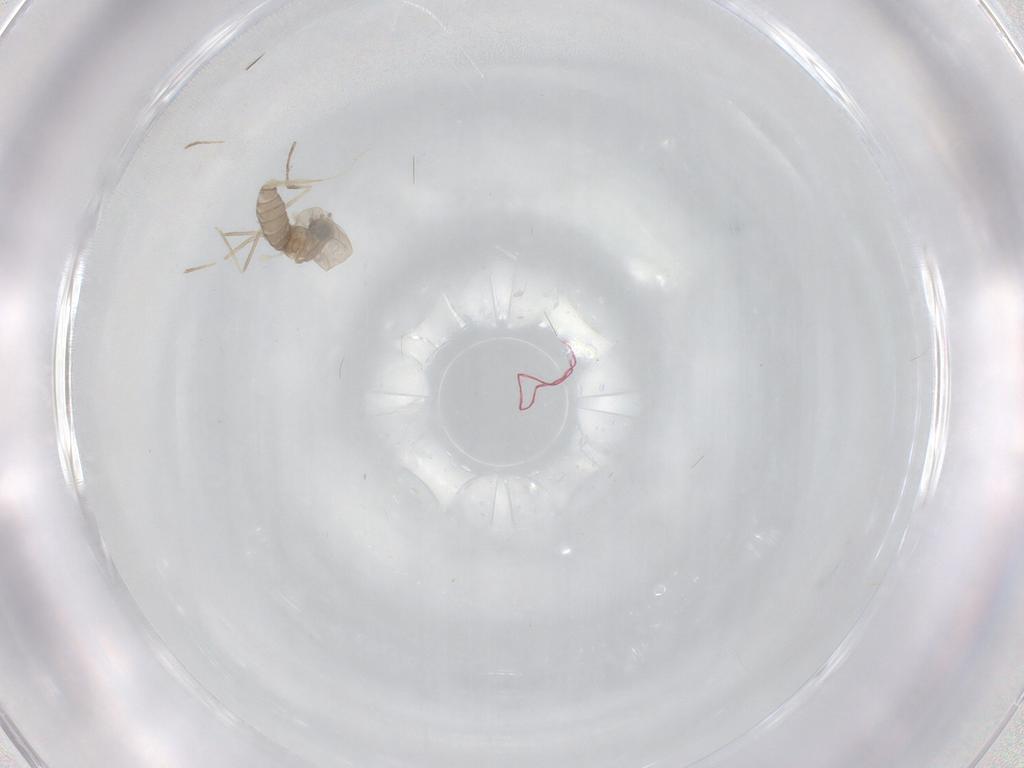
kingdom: Animalia
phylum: Arthropoda
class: Insecta
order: Diptera
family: Cecidomyiidae
